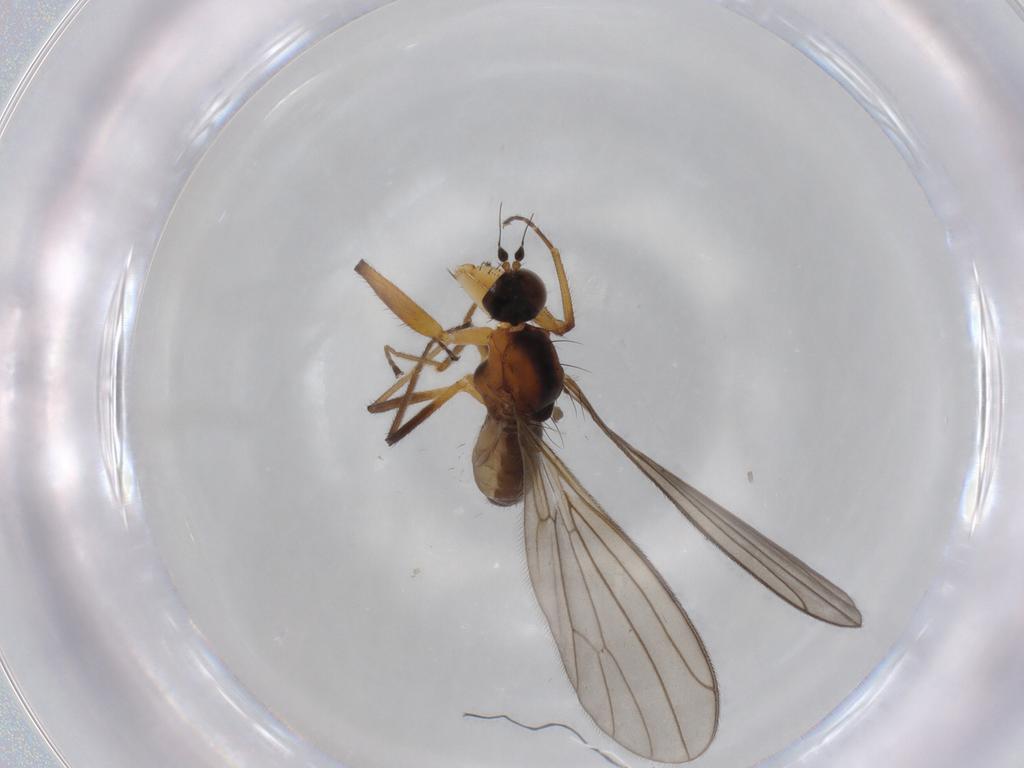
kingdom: Animalia
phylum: Arthropoda
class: Insecta
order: Diptera
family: Empididae
